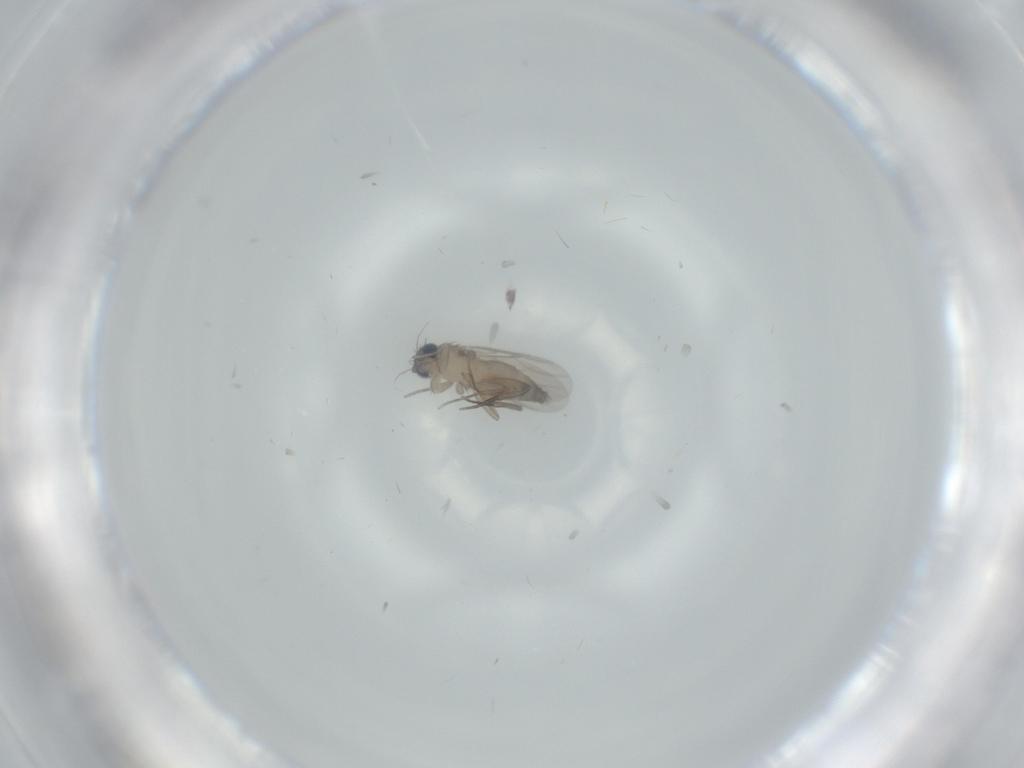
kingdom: Animalia
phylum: Arthropoda
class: Insecta
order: Diptera
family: Phoridae
